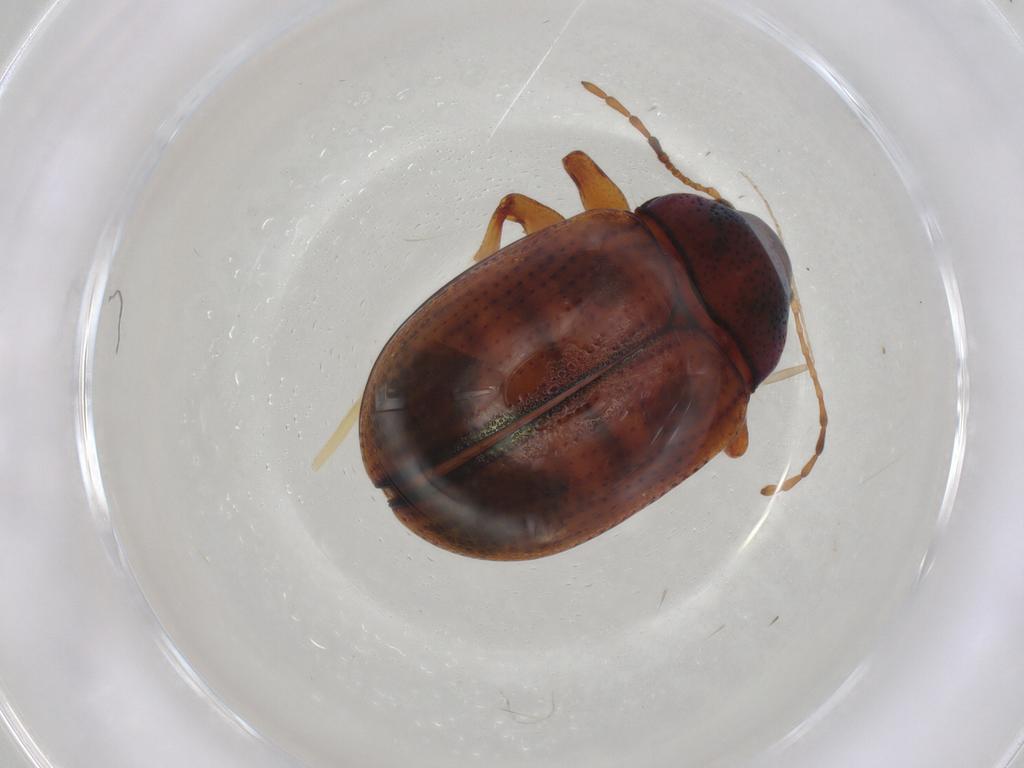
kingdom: Animalia
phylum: Arthropoda
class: Insecta
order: Coleoptera
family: Chrysomelidae
